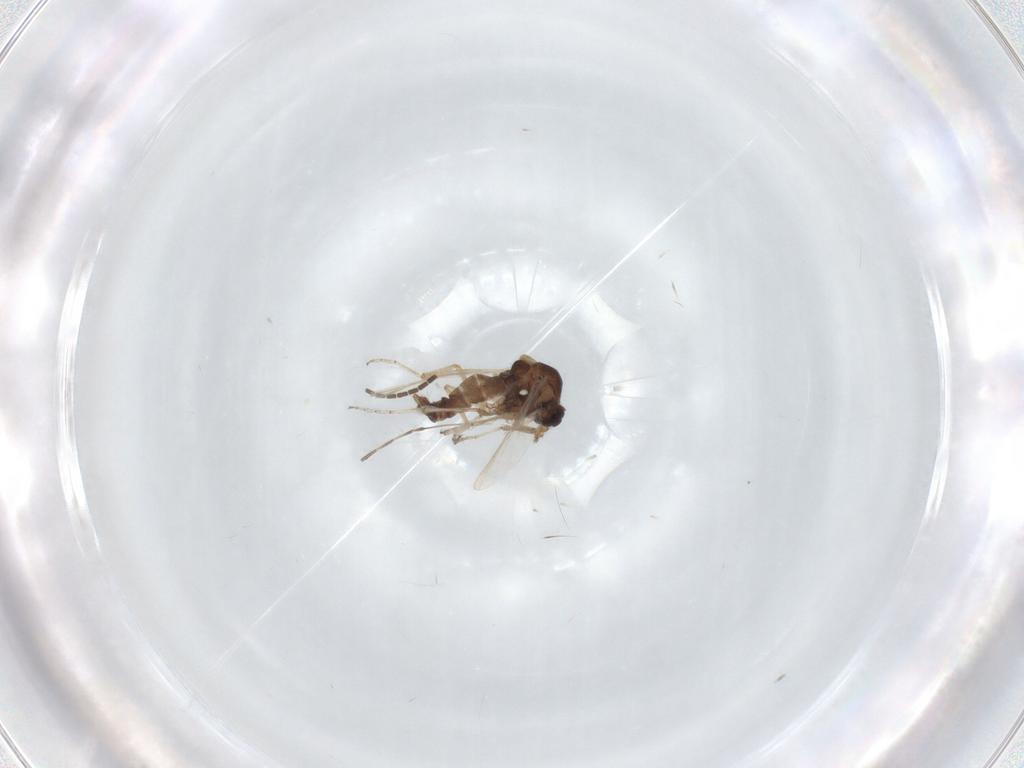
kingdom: Animalia
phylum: Arthropoda
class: Insecta
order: Diptera
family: Ceratopogonidae
